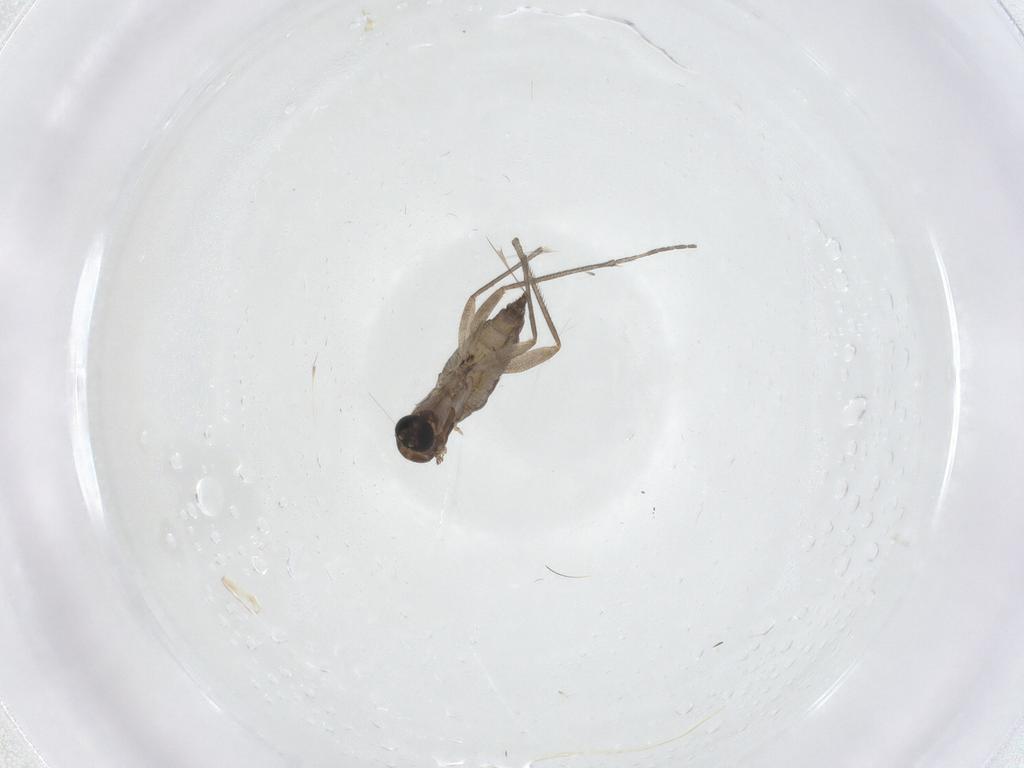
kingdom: Animalia
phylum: Arthropoda
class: Insecta
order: Diptera
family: Sciaridae
